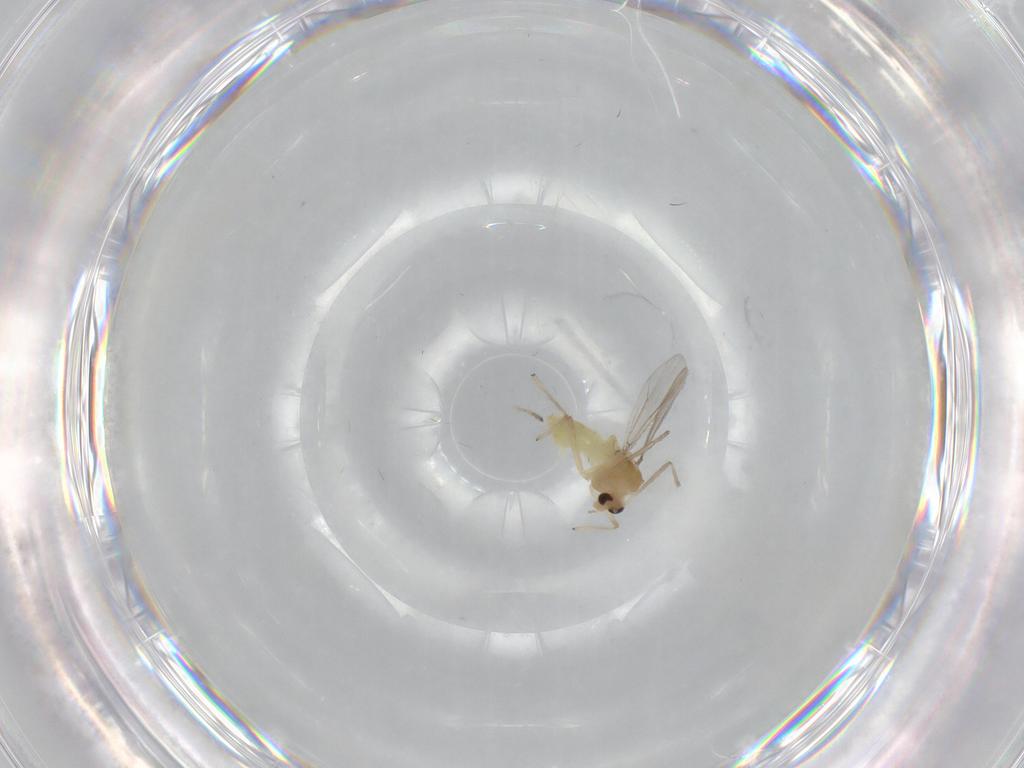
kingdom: Animalia
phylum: Arthropoda
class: Insecta
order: Diptera
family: Chironomidae
